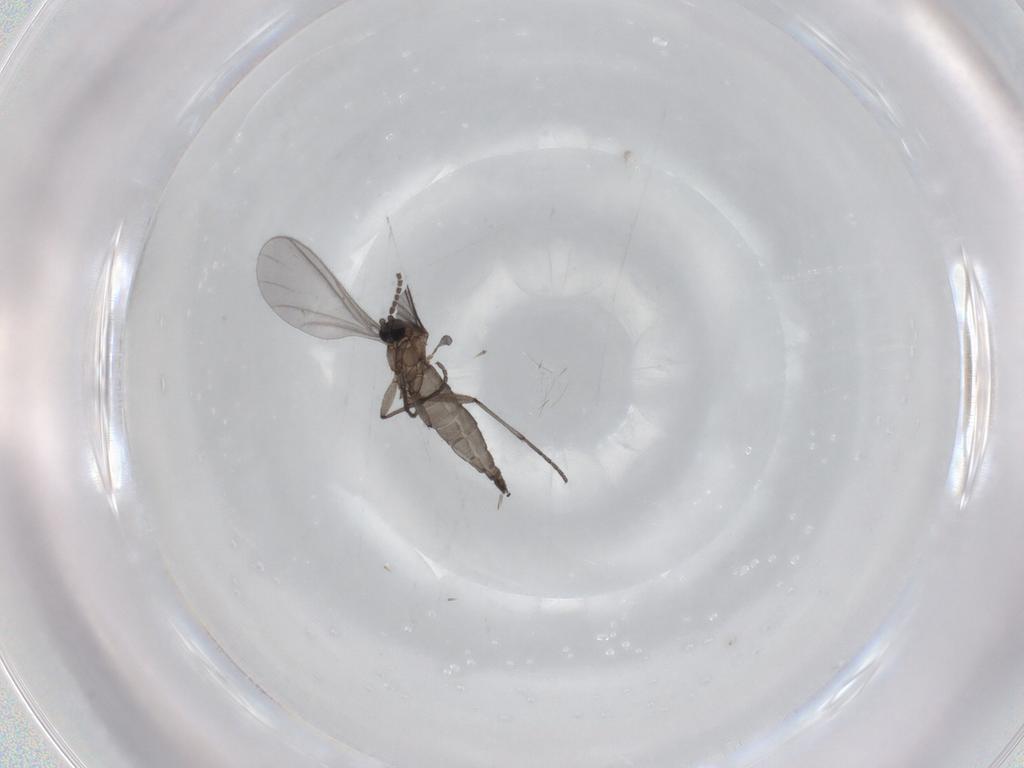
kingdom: Animalia
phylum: Arthropoda
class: Insecta
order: Diptera
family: Sciaridae
